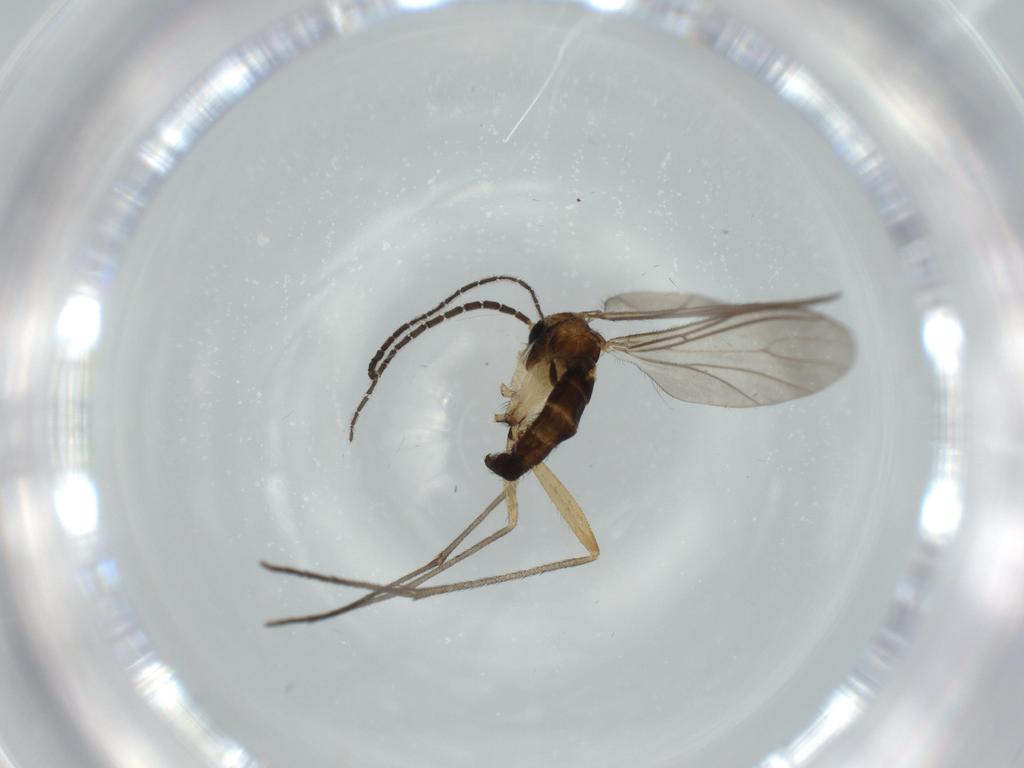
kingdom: Animalia
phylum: Arthropoda
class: Insecta
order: Diptera
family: Sciaridae
